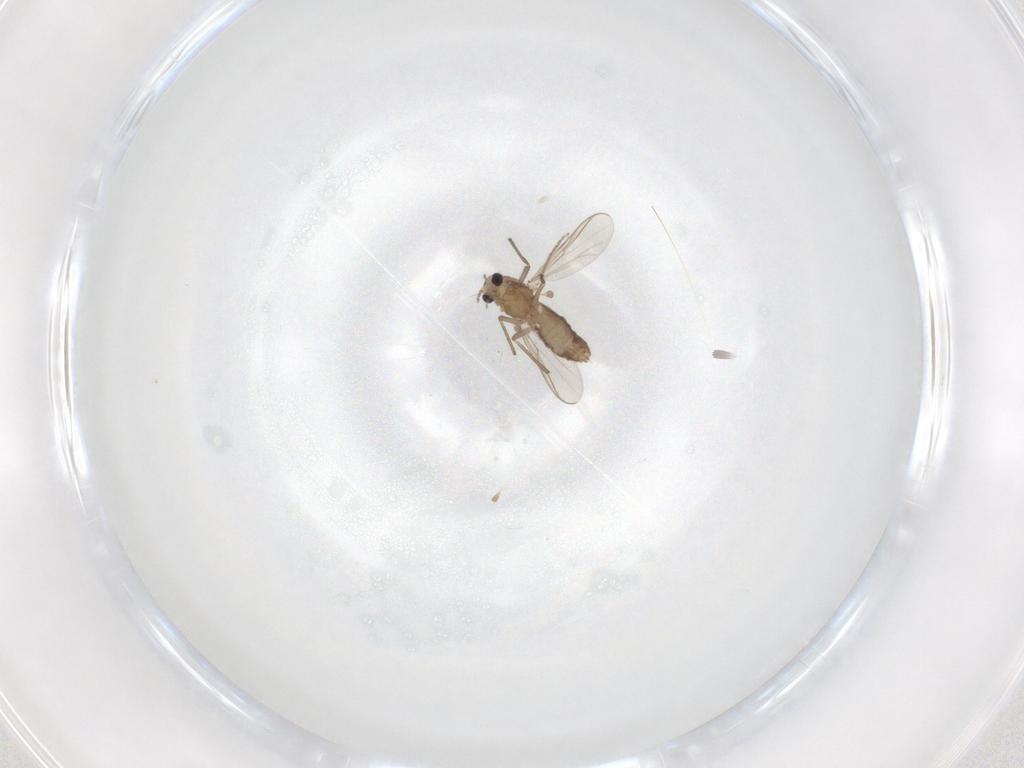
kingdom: Animalia
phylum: Arthropoda
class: Insecta
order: Diptera
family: Chironomidae
